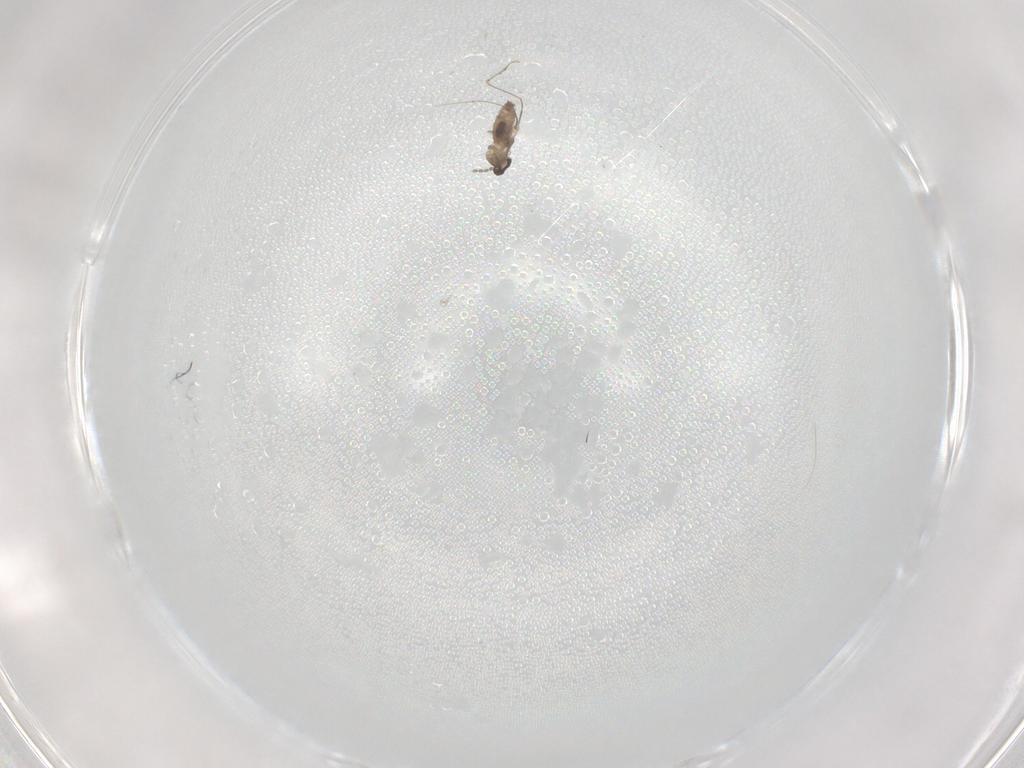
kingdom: Animalia
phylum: Arthropoda
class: Insecta
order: Diptera
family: Cecidomyiidae
